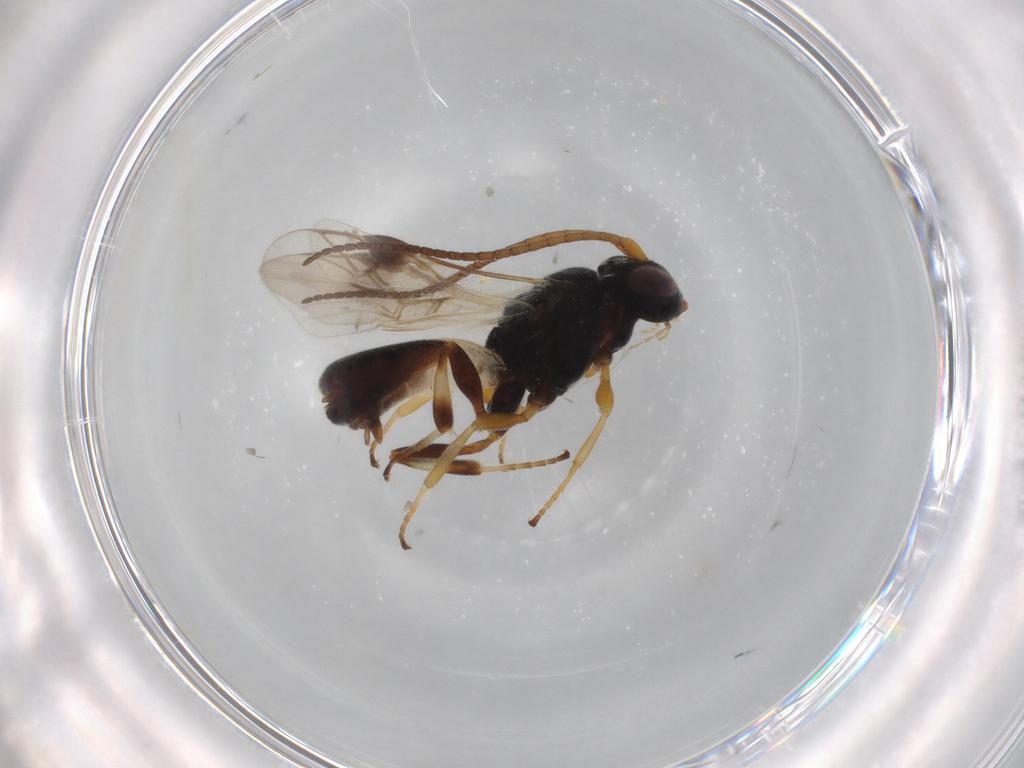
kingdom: Animalia
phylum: Arthropoda
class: Insecta
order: Hymenoptera
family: Braconidae
